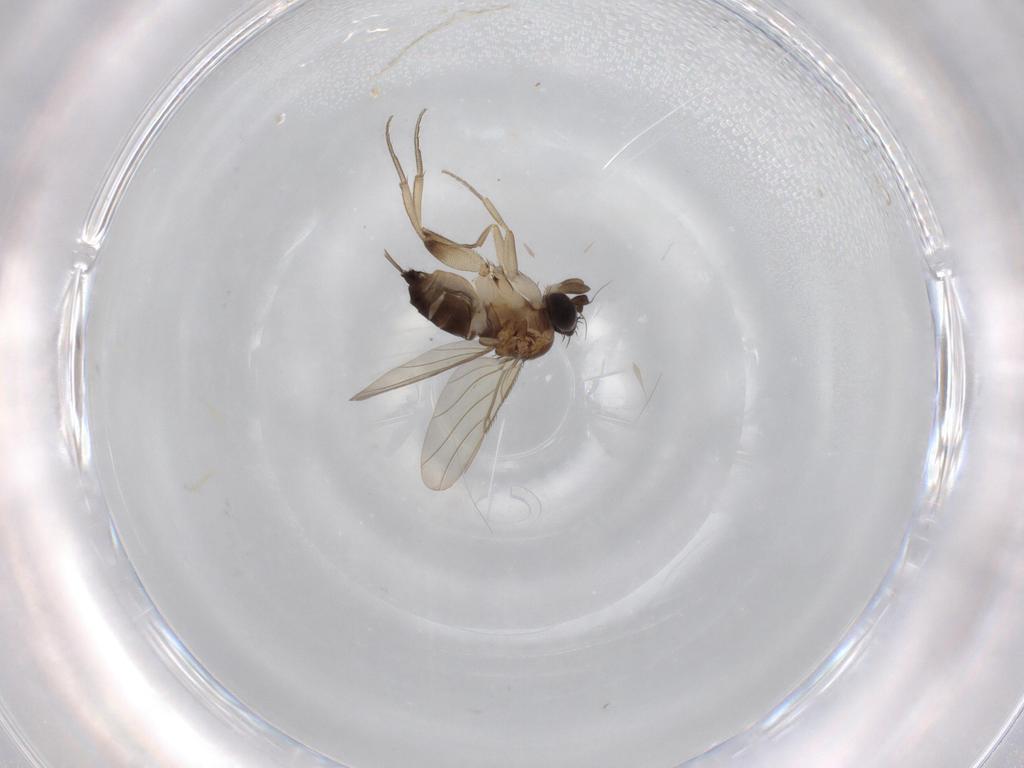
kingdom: Animalia
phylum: Arthropoda
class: Insecta
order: Diptera
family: Phoridae
